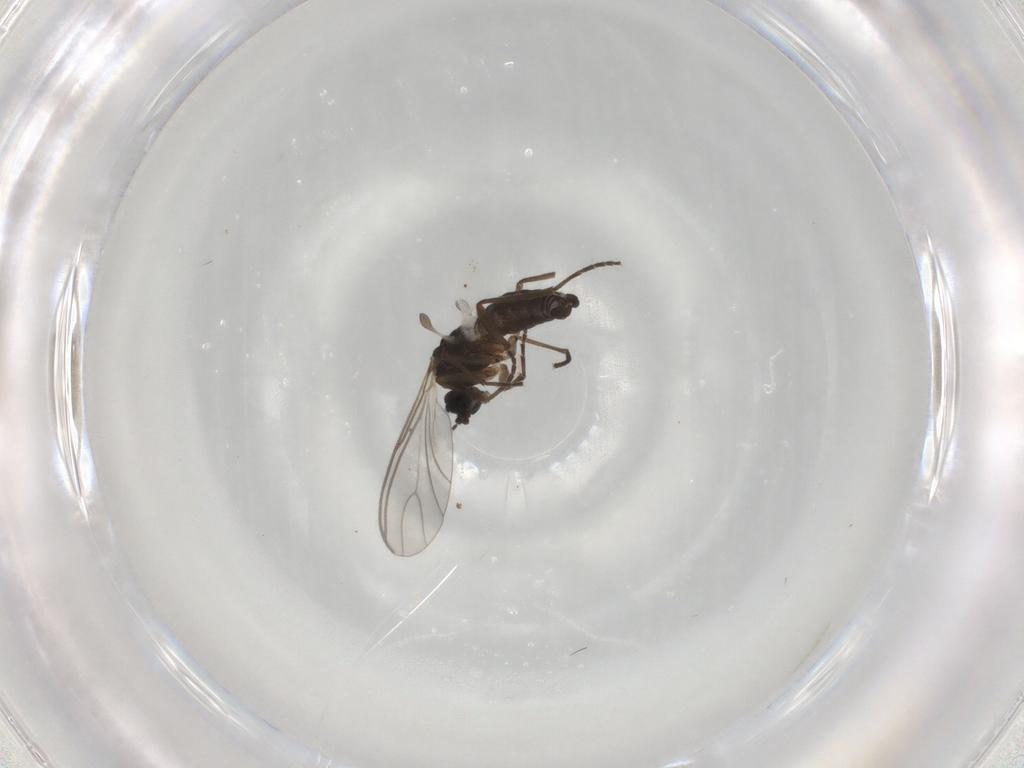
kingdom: Animalia
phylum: Arthropoda
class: Insecta
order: Diptera
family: Sciaridae
